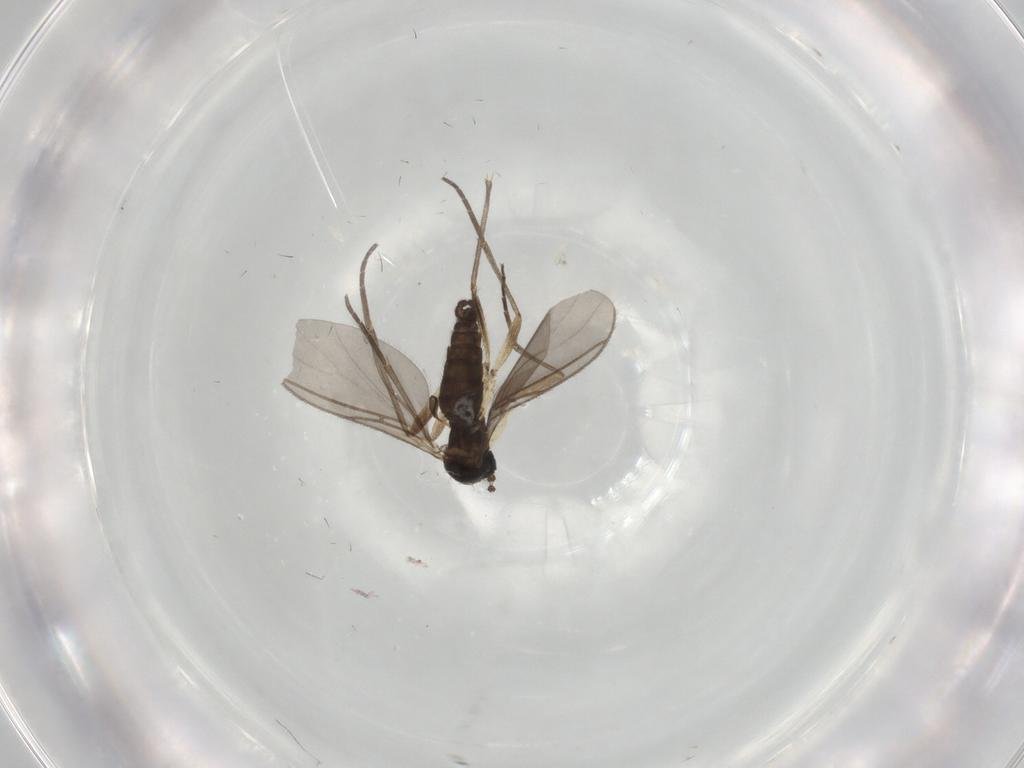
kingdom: Animalia
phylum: Arthropoda
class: Insecta
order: Diptera
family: Sciaridae
